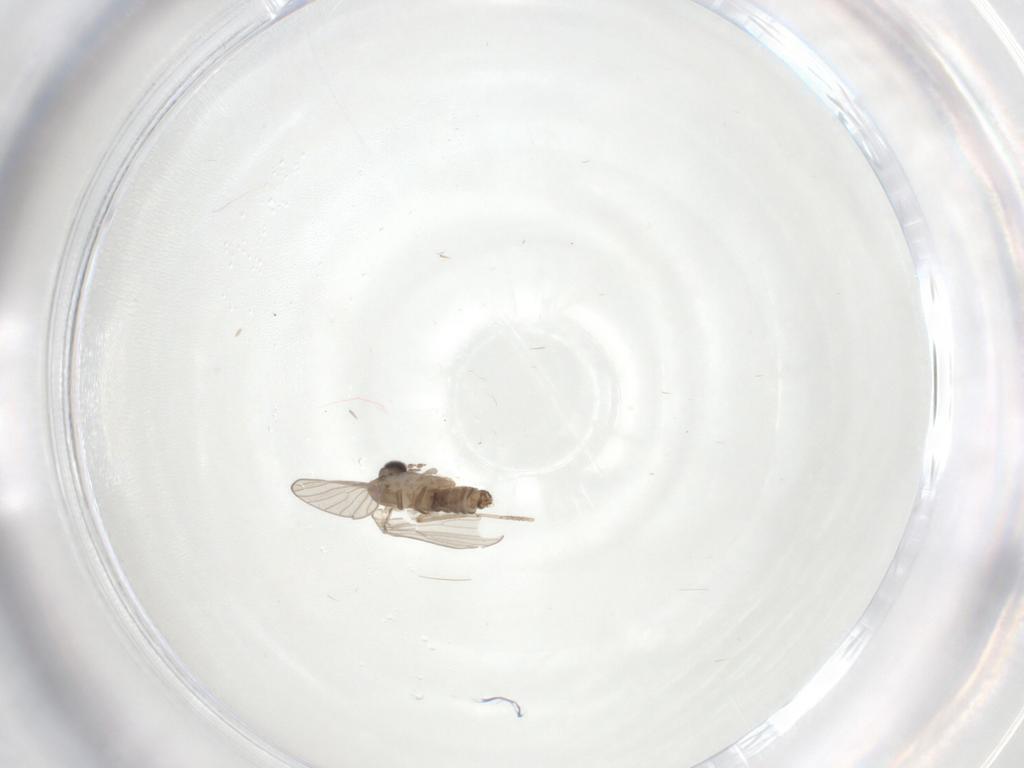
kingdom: Animalia
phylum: Arthropoda
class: Insecta
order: Diptera
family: Psychodidae
